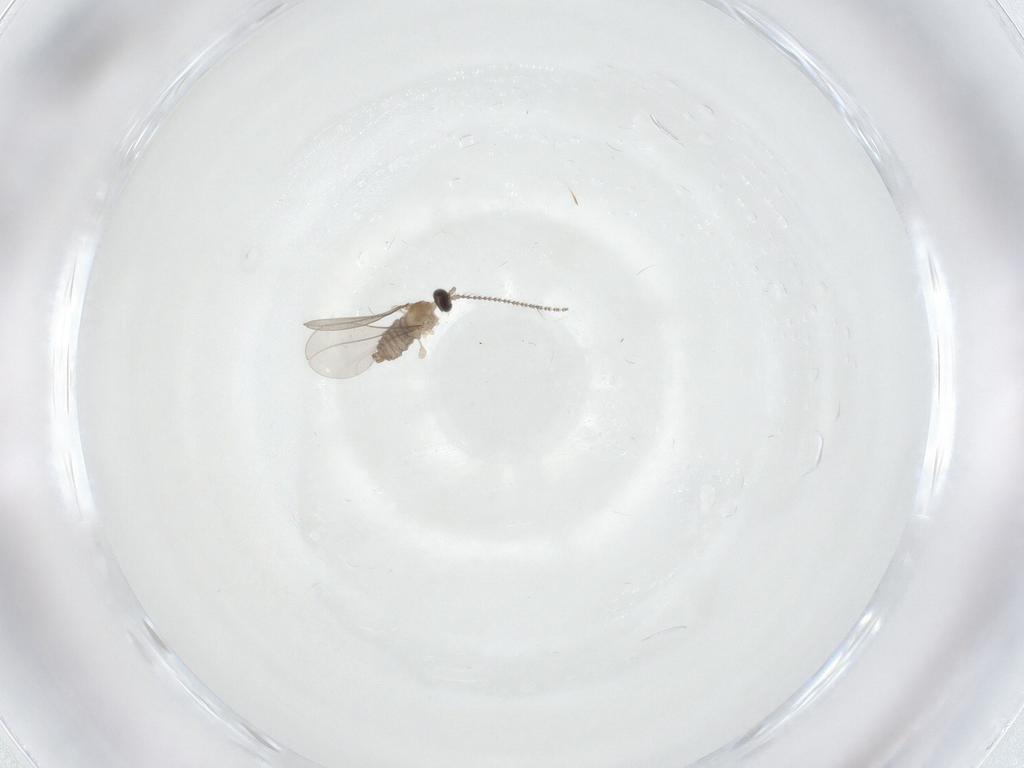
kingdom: Animalia
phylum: Arthropoda
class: Insecta
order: Diptera
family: Cecidomyiidae
